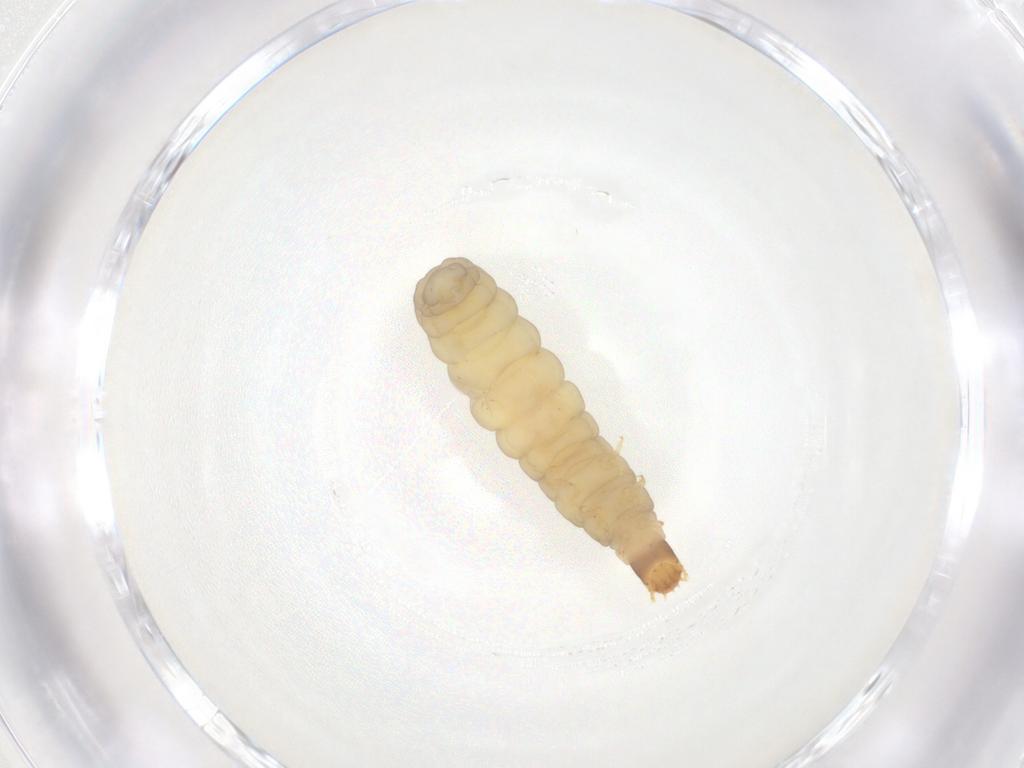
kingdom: Animalia
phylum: Arthropoda
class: Insecta
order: Coleoptera
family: Cantharidae
